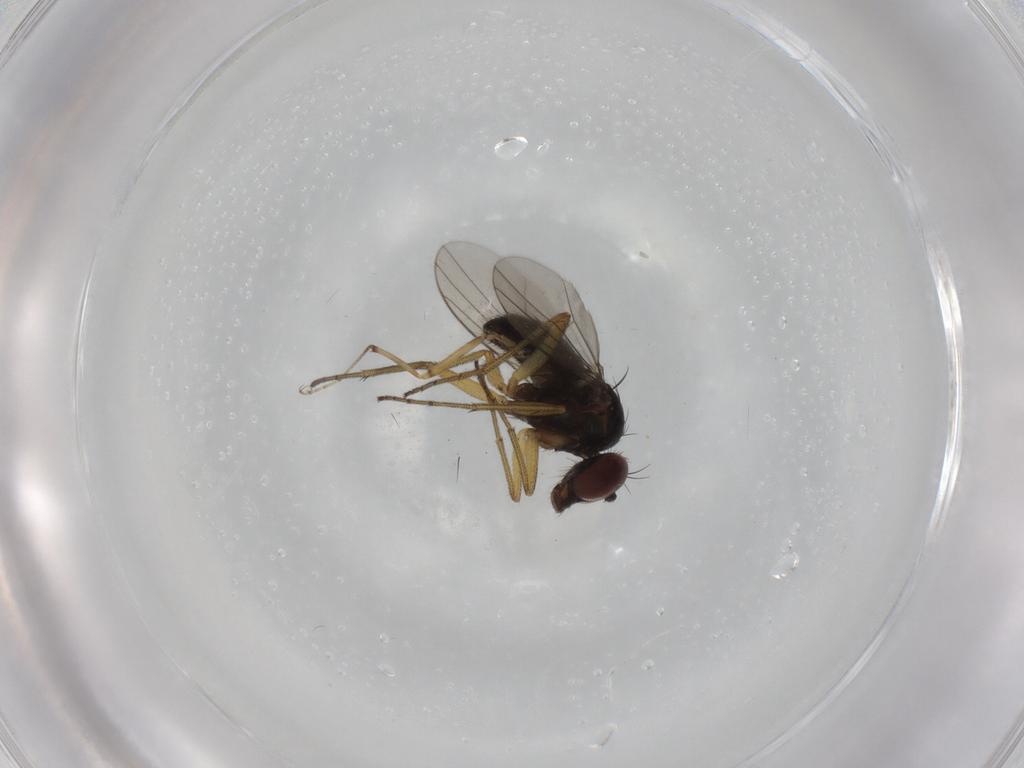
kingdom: Animalia
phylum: Arthropoda
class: Insecta
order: Diptera
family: Dolichopodidae
